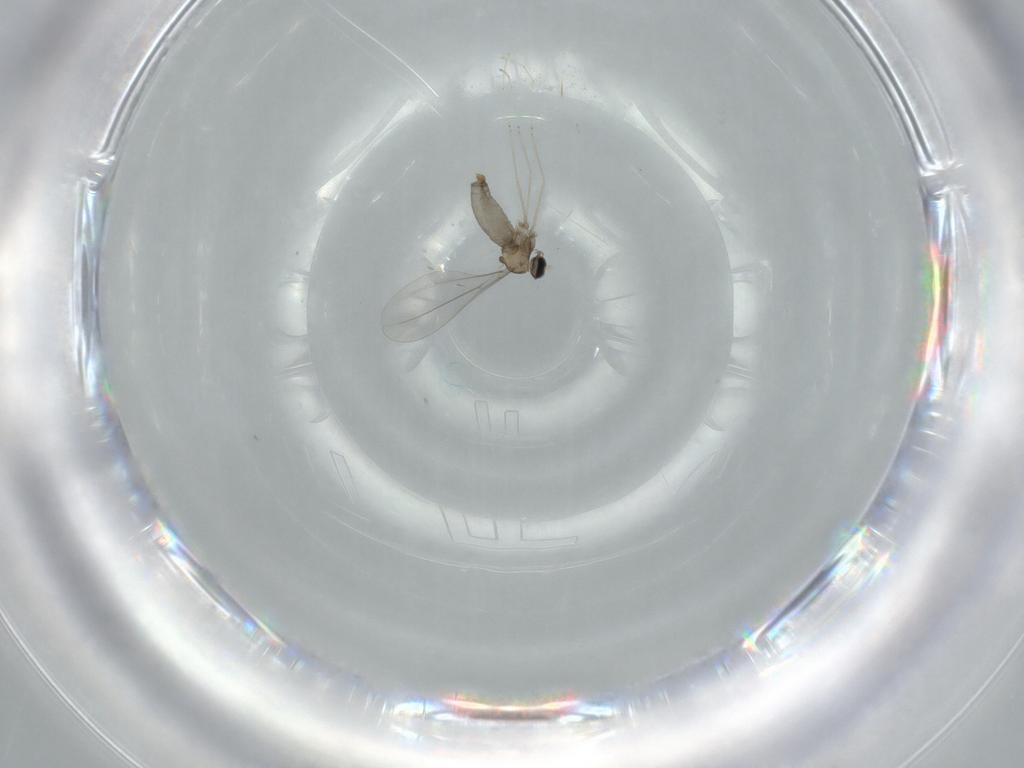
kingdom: Animalia
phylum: Arthropoda
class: Insecta
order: Diptera
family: Cecidomyiidae
